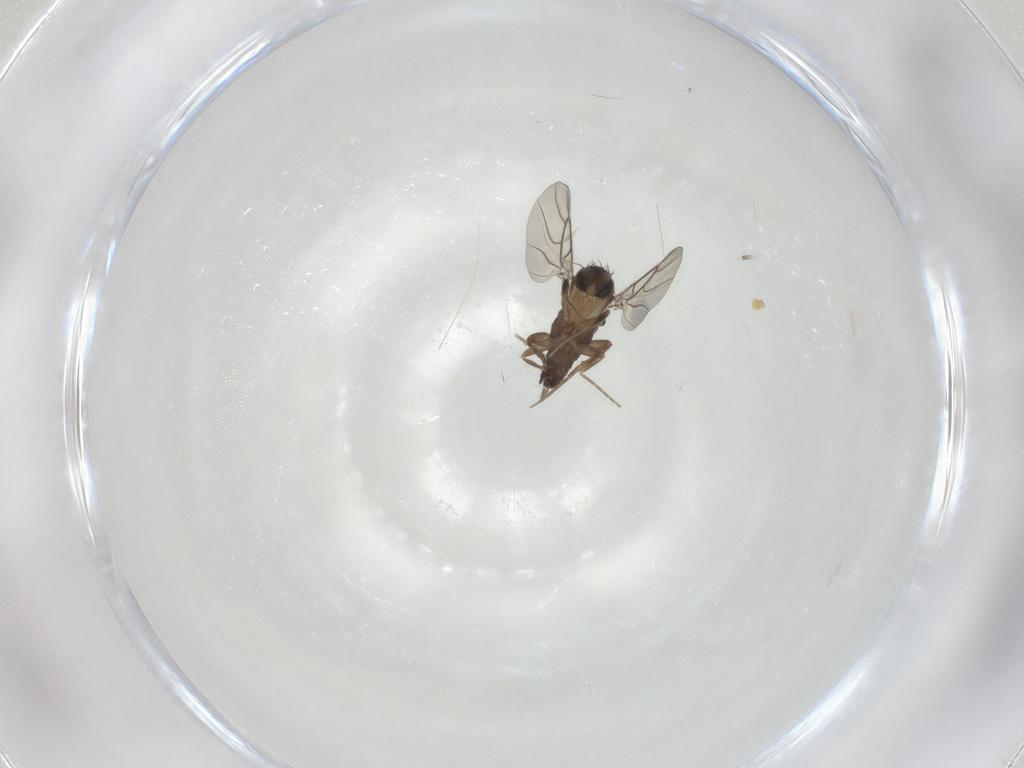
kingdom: Animalia
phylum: Arthropoda
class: Insecta
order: Diptera
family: Phoridae
